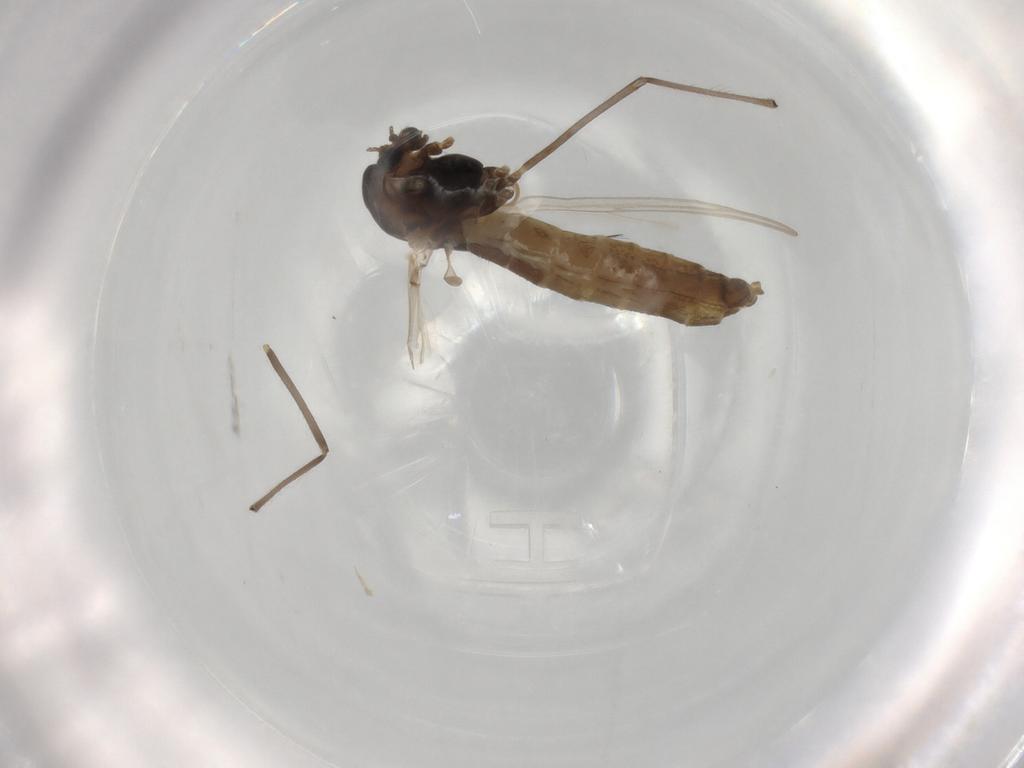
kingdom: Animalia
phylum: Arthropoda
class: Insecta
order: Diptera
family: Chironomidae
